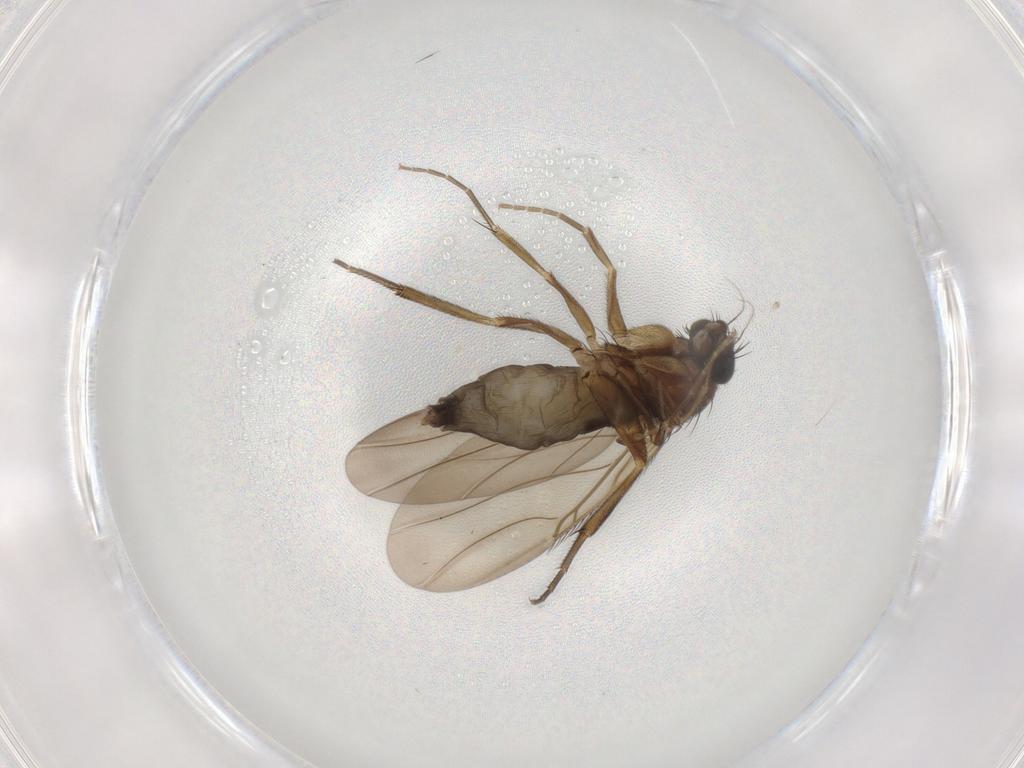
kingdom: Animalia
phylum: Arthropoda
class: Insecta
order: Diptera
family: Phoridae
